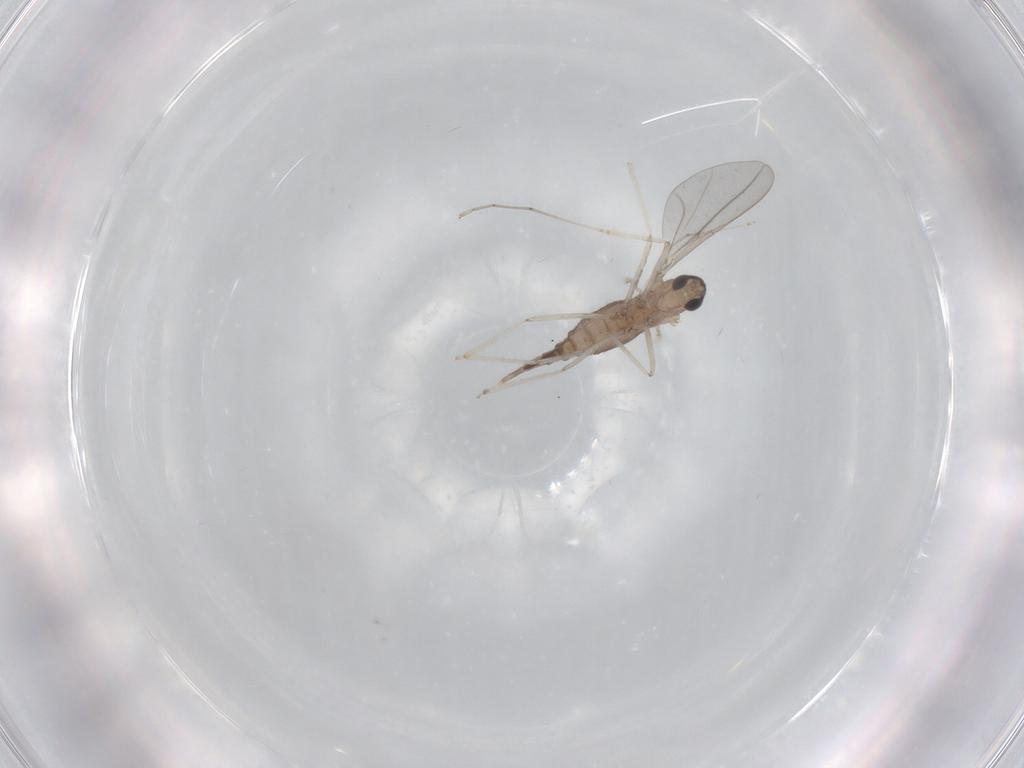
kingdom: Animalia
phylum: Arthropoda
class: Insecta
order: Diptera
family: Cecidomyiidae
